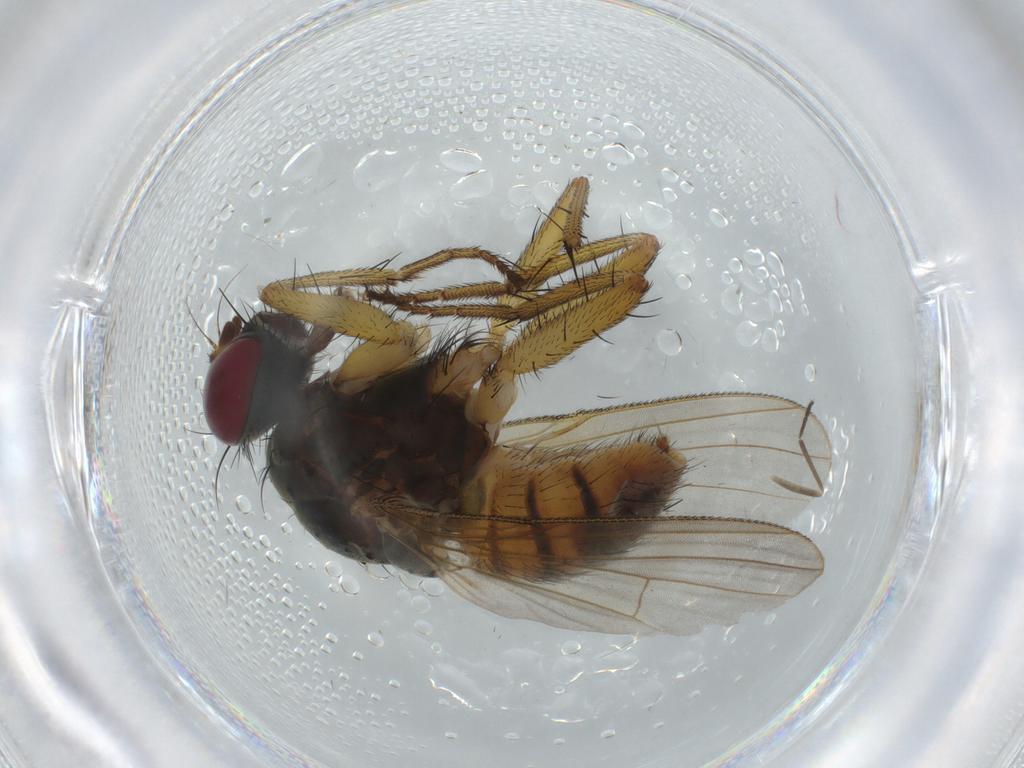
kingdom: Animalia
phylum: Arthropoda
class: Insecta
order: Diptera
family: Muscidae
